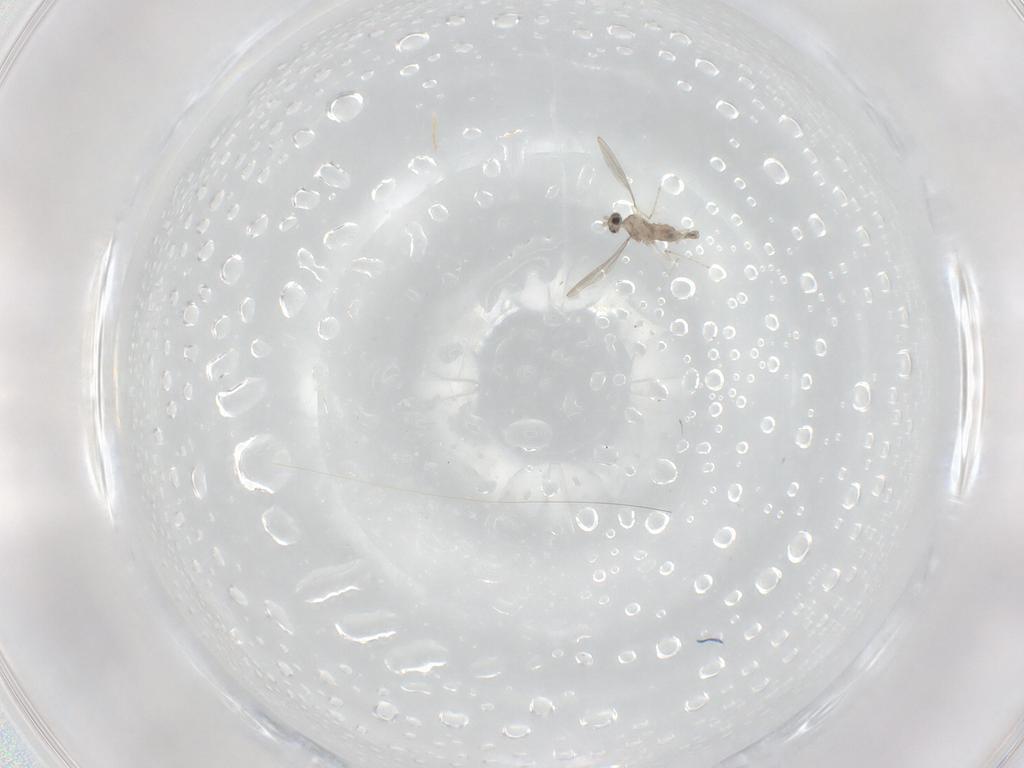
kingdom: Animalia
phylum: Arthropoda
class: Insecta
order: Diptera
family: Cecidomyiidae
